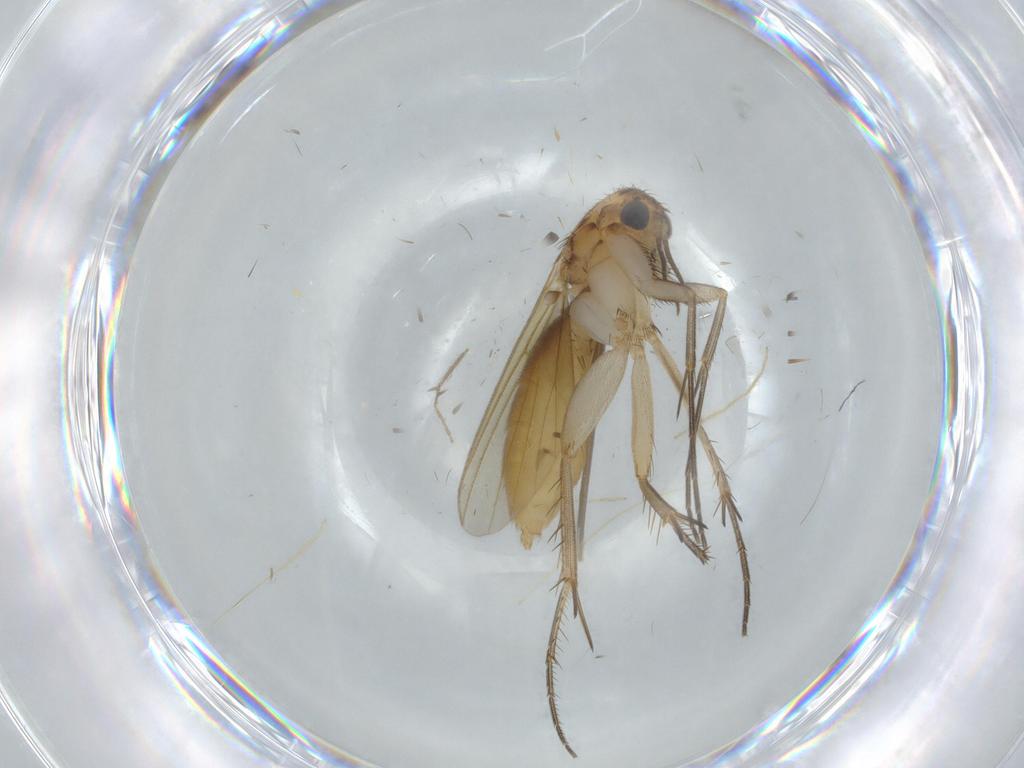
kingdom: Animalia
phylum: Arthropoda
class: Insecta
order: Diptera
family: Mycetophilidae
